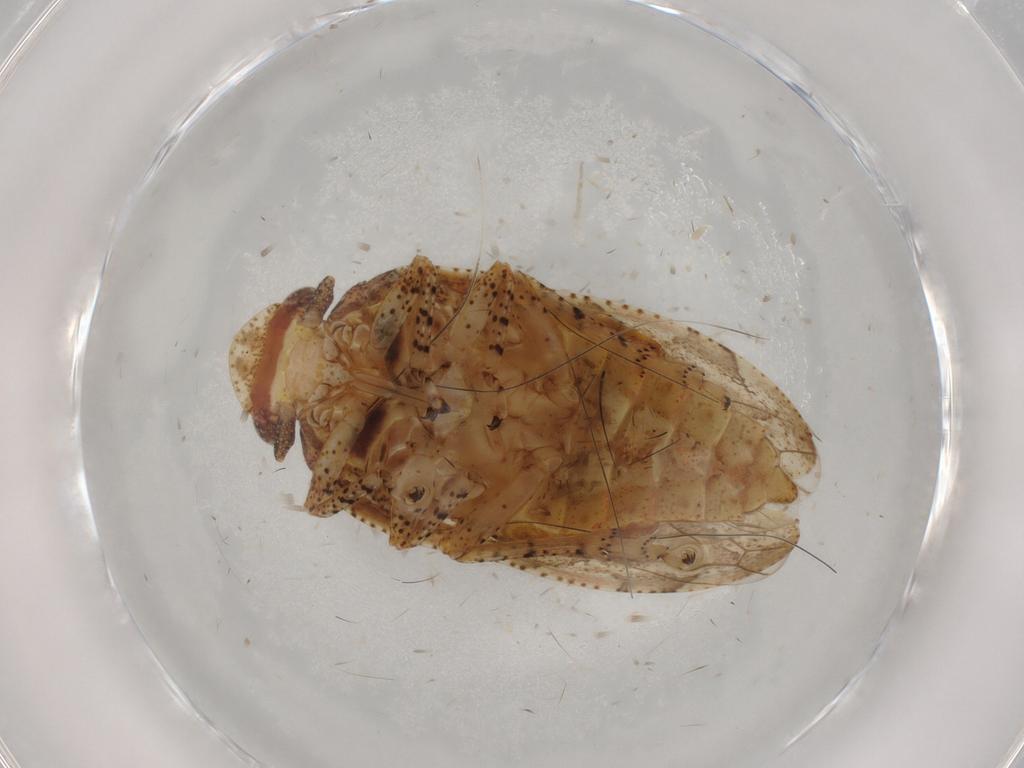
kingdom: Animalia
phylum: Arthropoda
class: Insecta
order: Hemiptera
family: Tettigometridae
